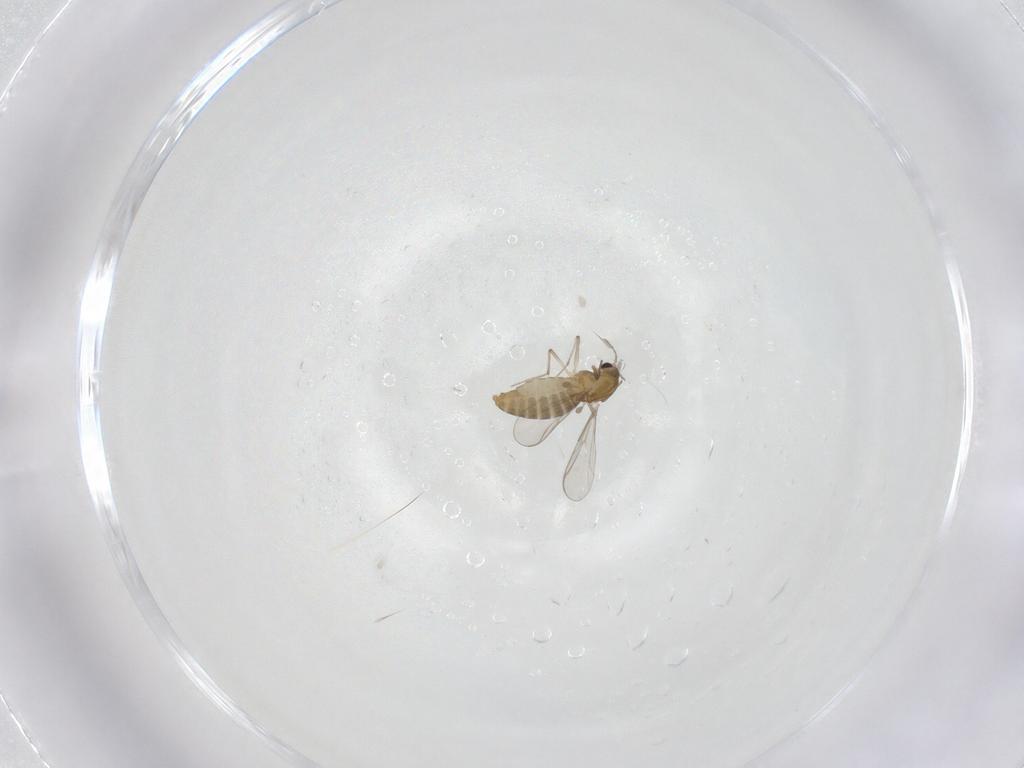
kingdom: Animalia
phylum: Arthropoda
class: Insecta
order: Diptera
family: Chironomidae
